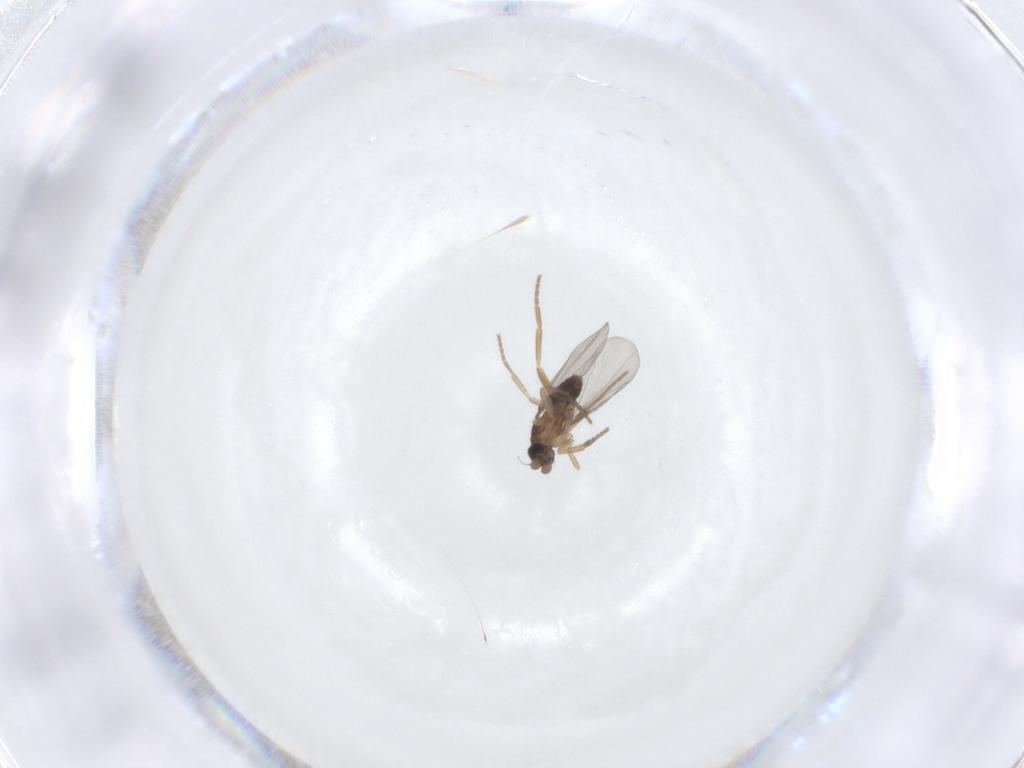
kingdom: Animalia
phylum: Arthropoda
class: Insecta
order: Diptera
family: Phoridae
